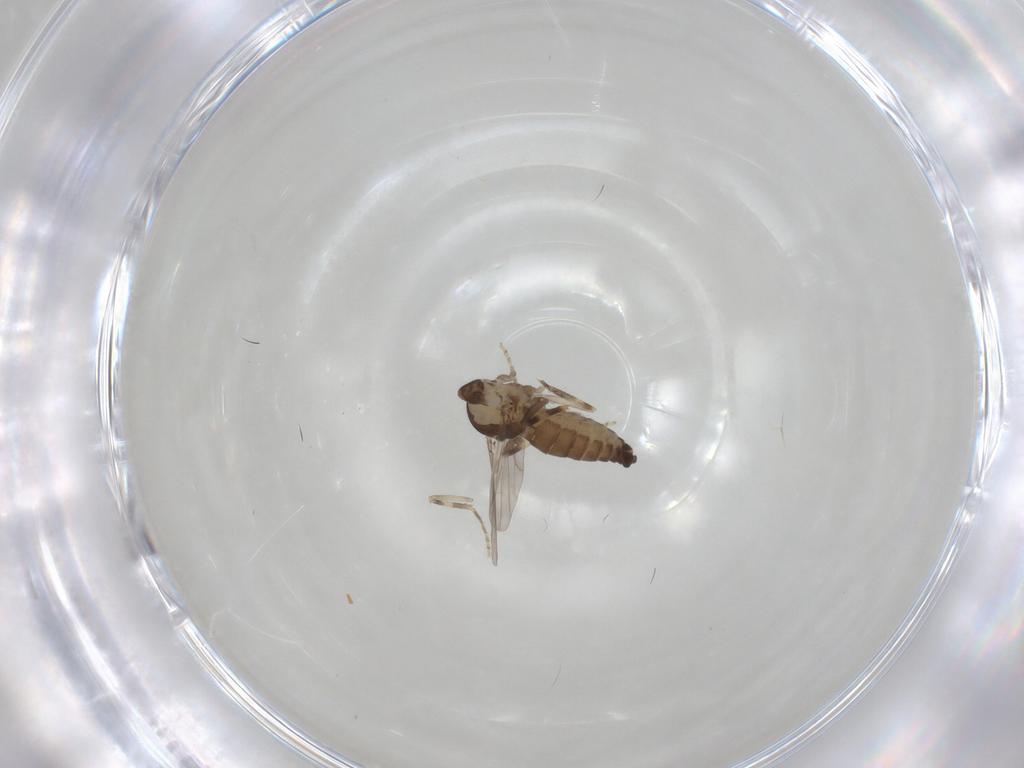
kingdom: Animalia
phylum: Arthropoda
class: Insecta
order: Diptera
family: Ceratopogonidae
